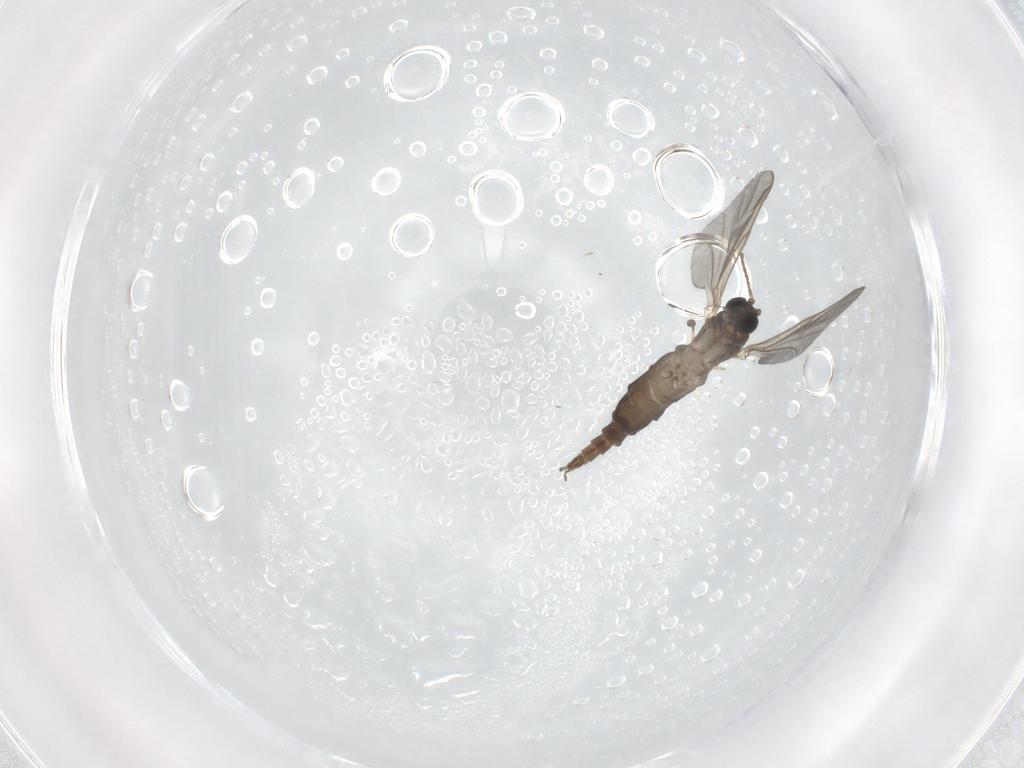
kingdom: Animalia
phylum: Arthropoda
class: Insecta
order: Diptera
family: Sciaridae
